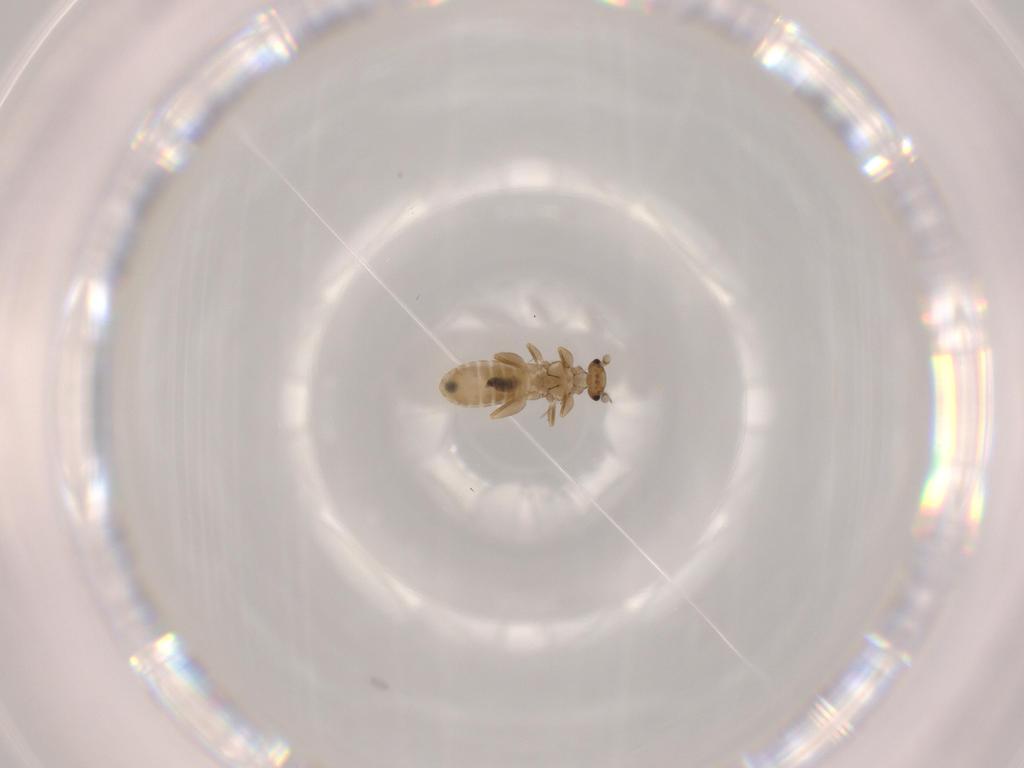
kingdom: Animalia
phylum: Arthropoda
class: Insecta
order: Psocodea
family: Liposcelididae
